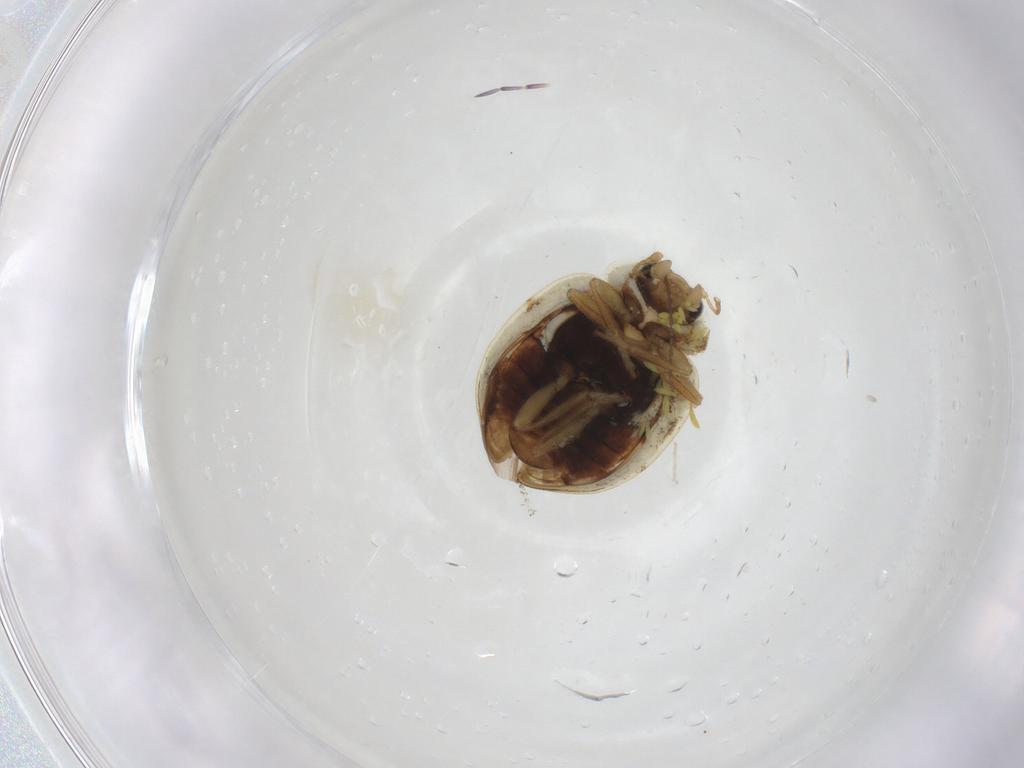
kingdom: Animalia
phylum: Arthropoda
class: Insecta
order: Coleoptera
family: Coccinellidae
